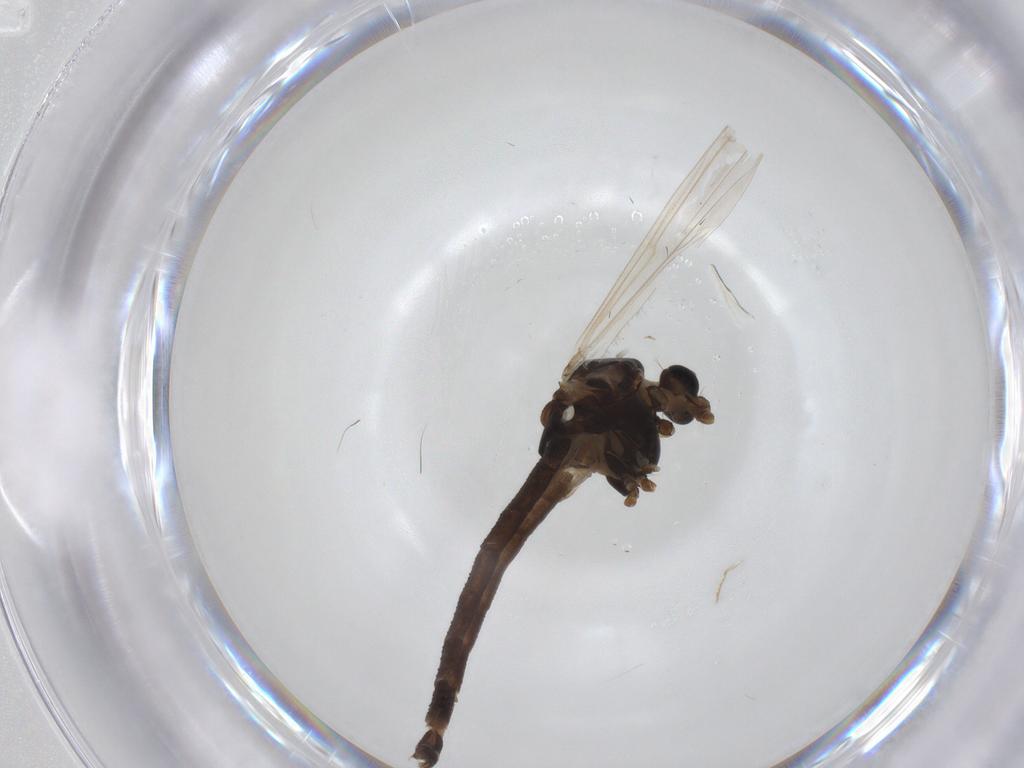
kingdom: Animalia
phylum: Arthropoda
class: Insecta
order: Diptera
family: Chironomidae
